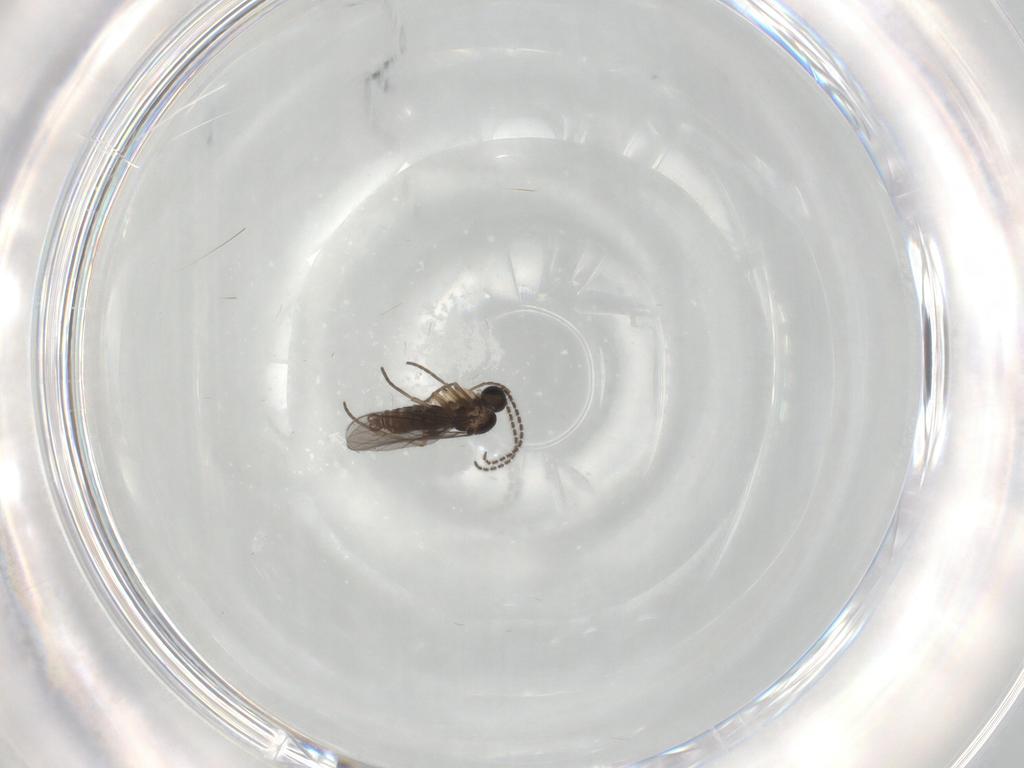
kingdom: Animalia
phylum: Arthropoda
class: Insecta
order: Diptera
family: Sciaridae
